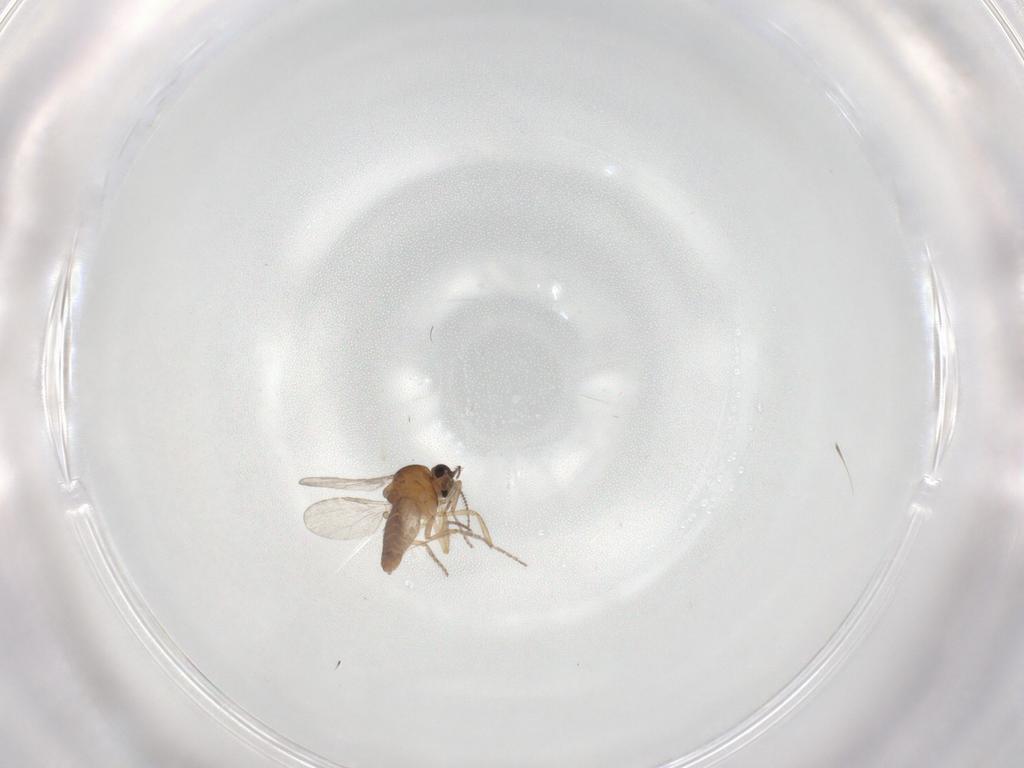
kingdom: Animalia
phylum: Arthropoda
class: Insecta
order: Diptera
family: Ceratopogonidae
